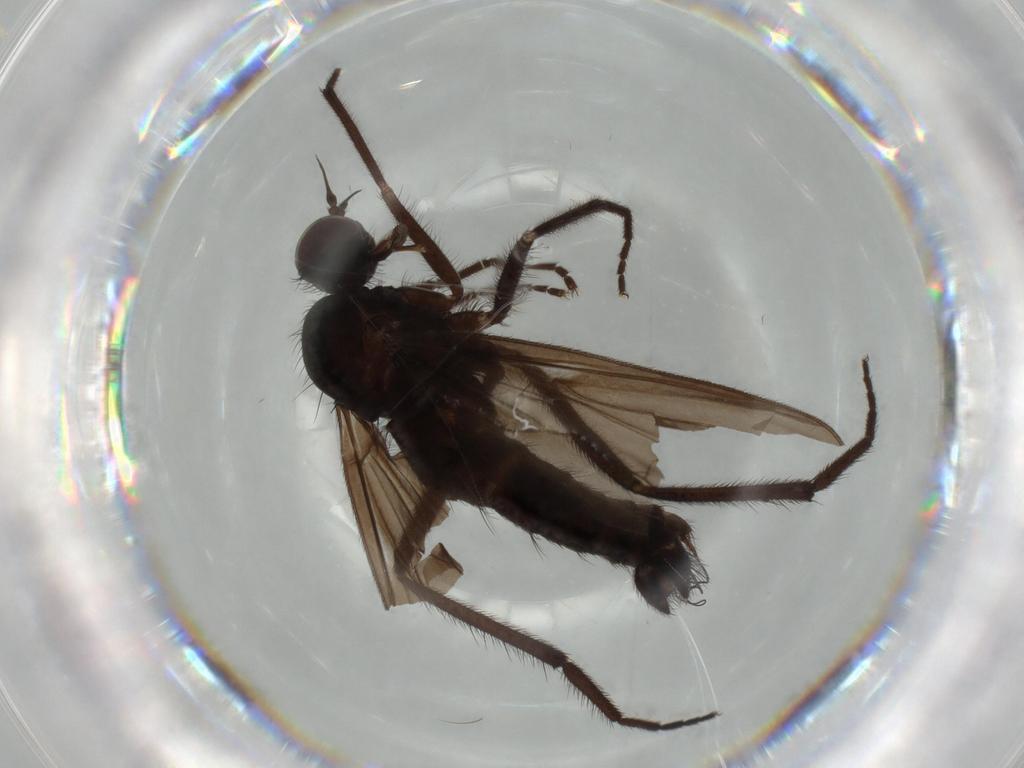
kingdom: Animalia
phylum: Arthropoda
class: Insecta
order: Diptera
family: Empididae
